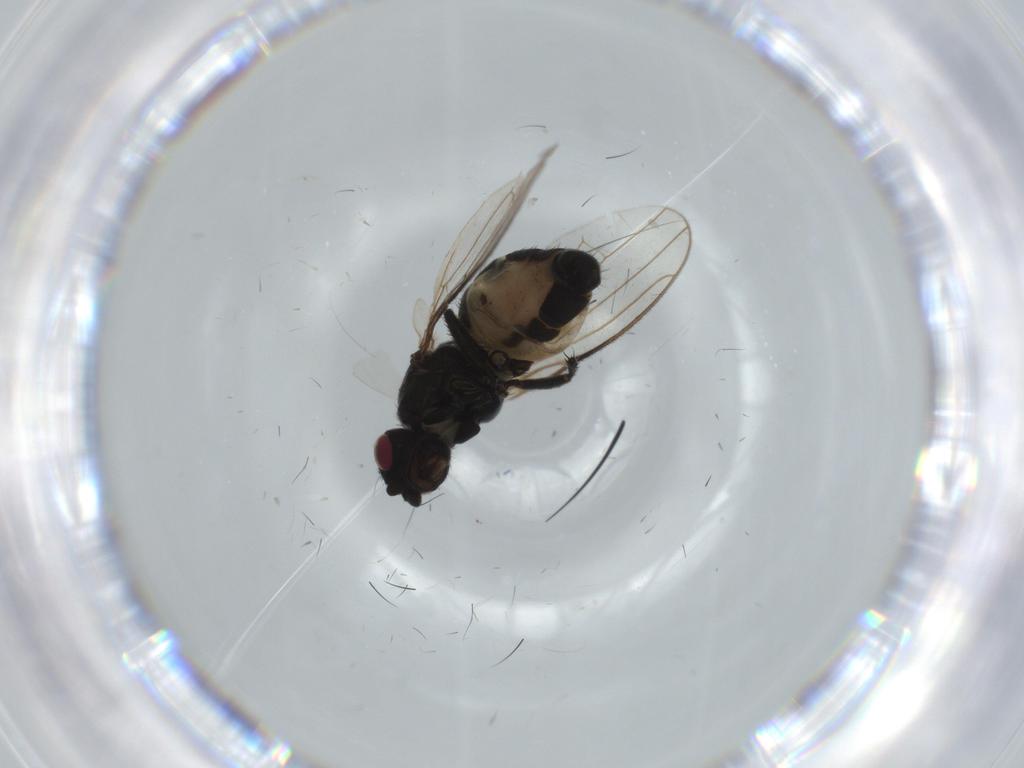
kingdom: Animalia
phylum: Arthropoda
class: Insecta
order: Diptera
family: Sphaeroceridae
